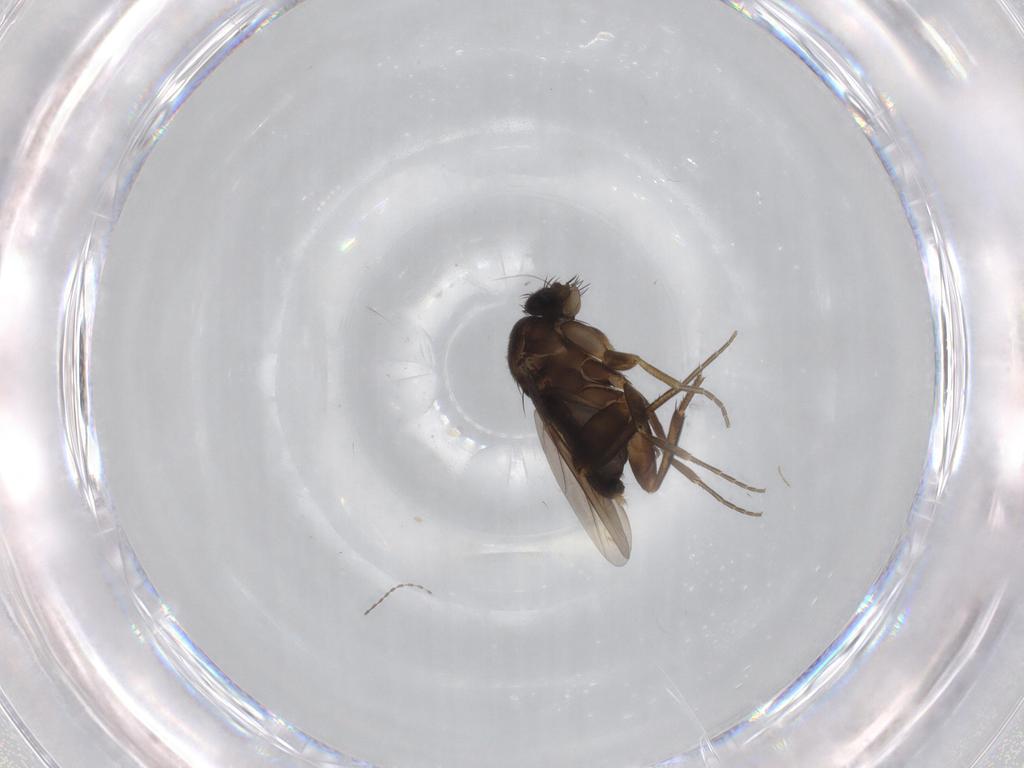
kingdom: Animalia
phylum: Arthropoda
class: Insecta
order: Diptera
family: Phoridae
